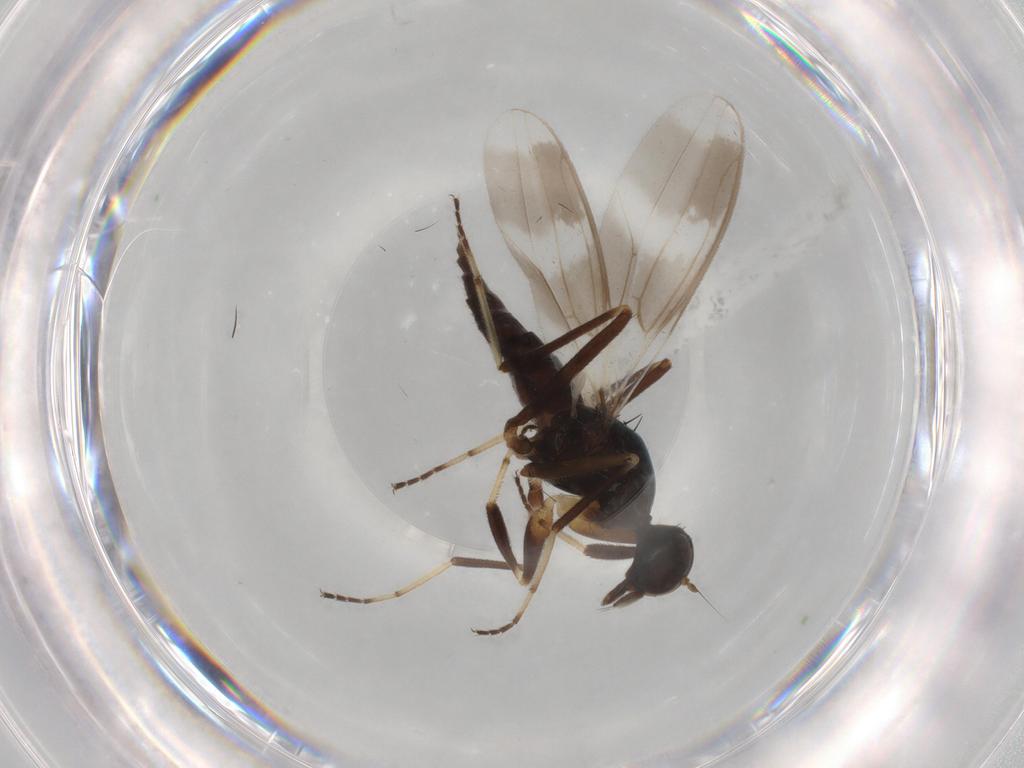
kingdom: Animalia
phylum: Arthropoda
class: Insecta
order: Diptera
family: Hybotidae
